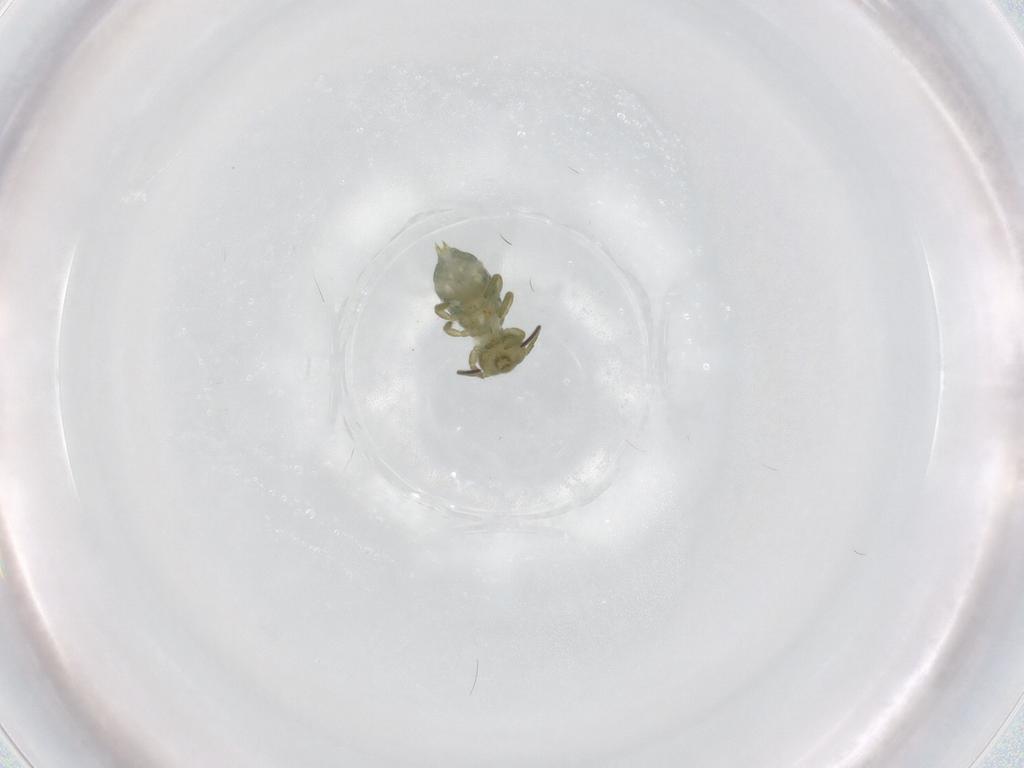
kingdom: Animalia
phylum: Arthropoda
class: Collembola
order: Symphypleona
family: Sminthuridae
